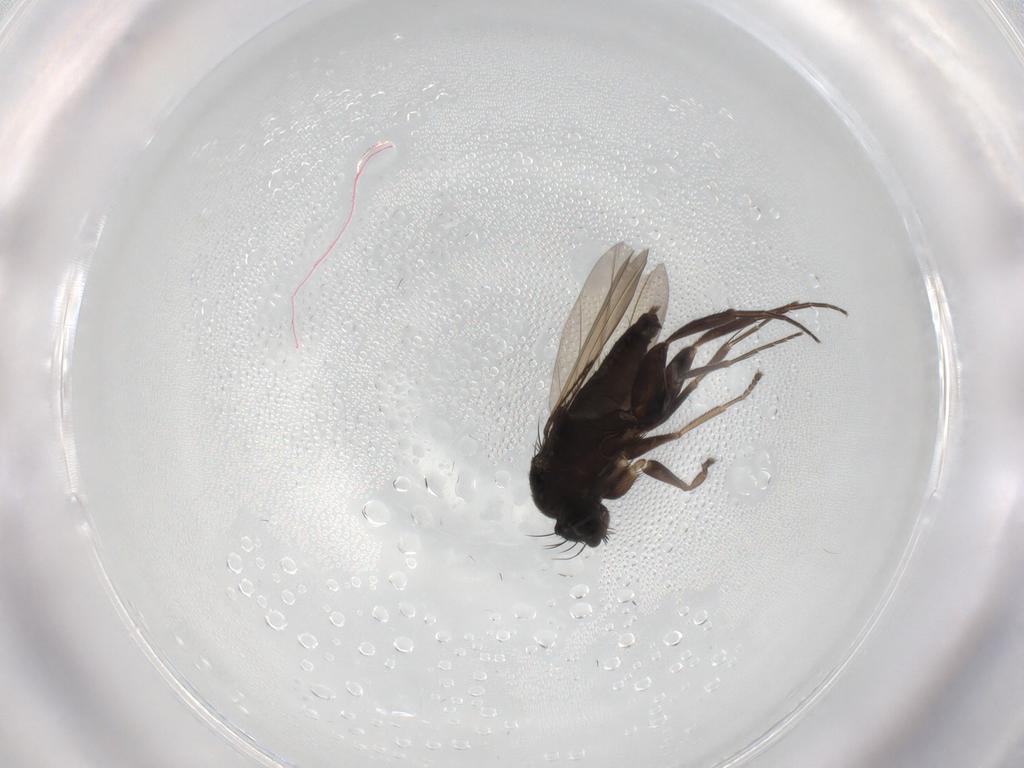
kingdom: Animalia
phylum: Arthropoda
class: Insecta
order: Diptera
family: Phoridae
